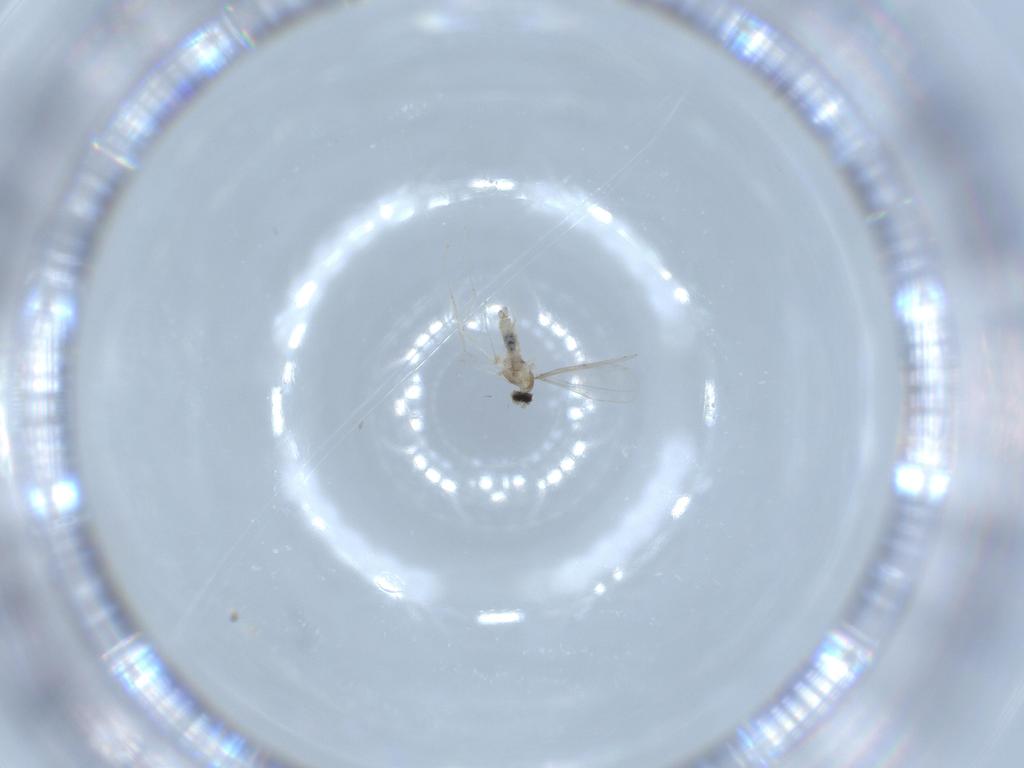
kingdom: Animalia
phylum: Arthropoda
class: Insecta
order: Diptera
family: Cecidomyiidae
